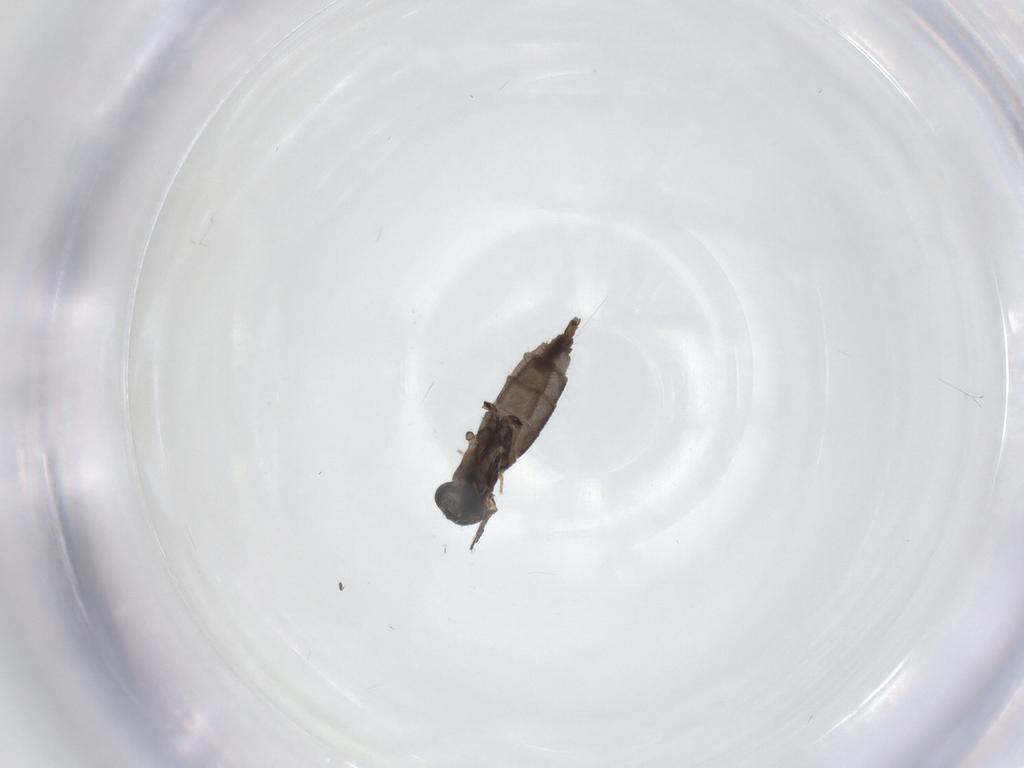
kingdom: Animalia
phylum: Arthropoda
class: Insecta
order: Diptera
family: Sciaridae
